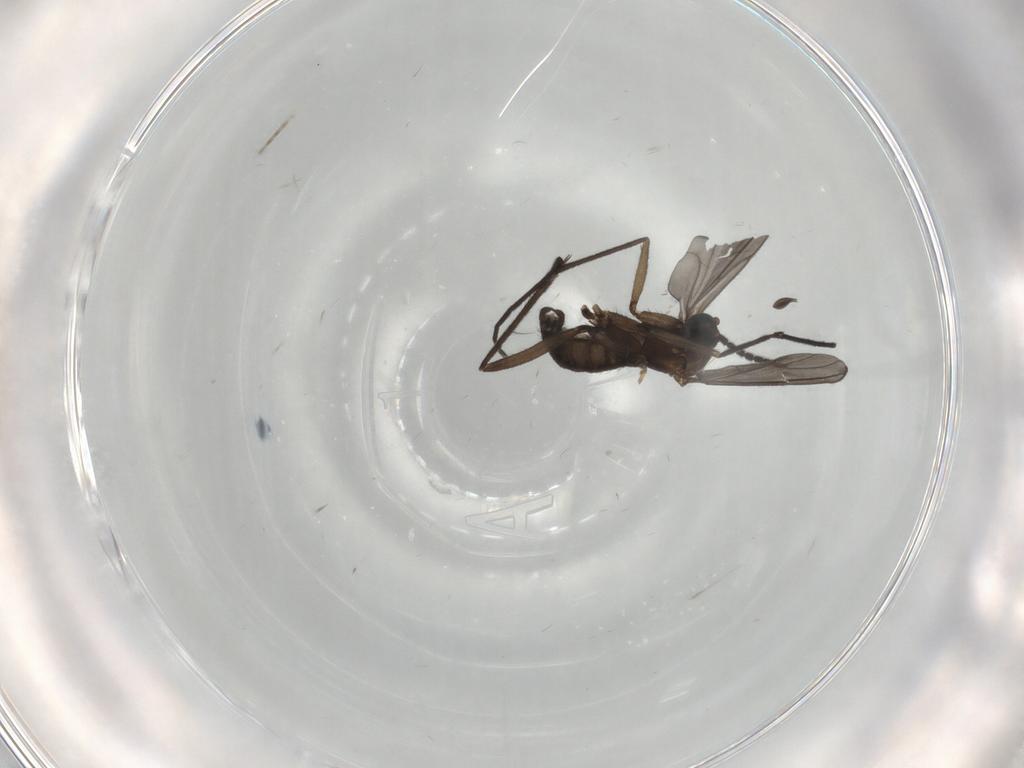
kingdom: Animalia
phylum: Arthropoda
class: Insecta
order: Diptera
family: Sciaridae
